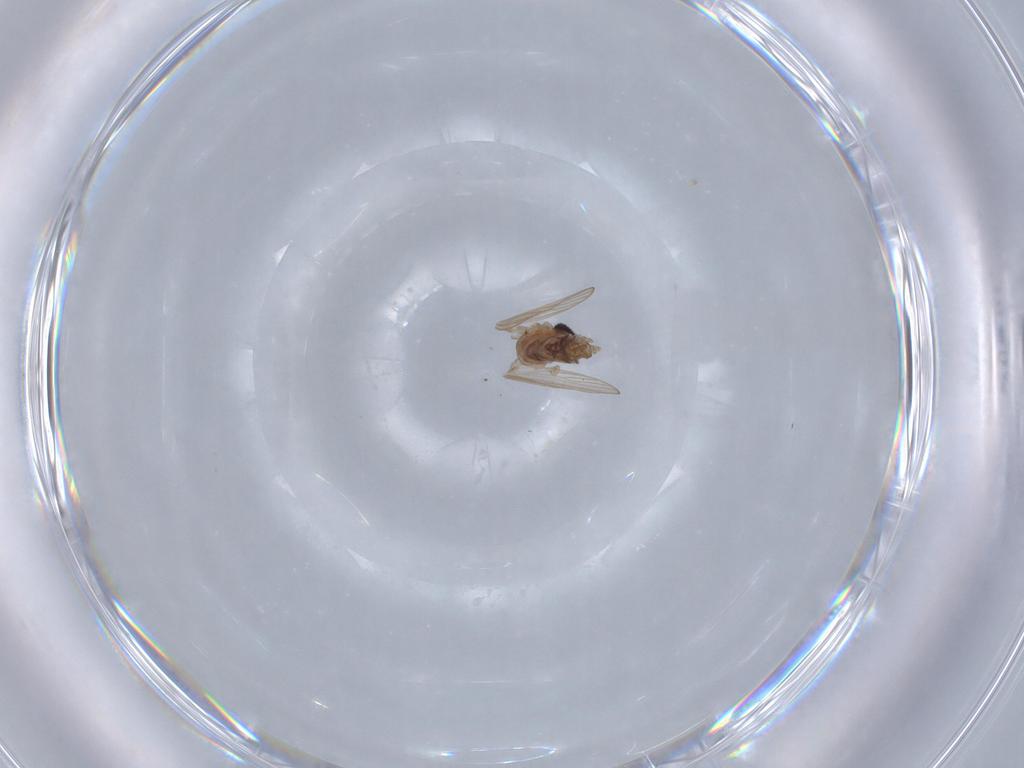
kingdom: Animalia
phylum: Arthropoda
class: Insecta
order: Diptera
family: Psychodidae
